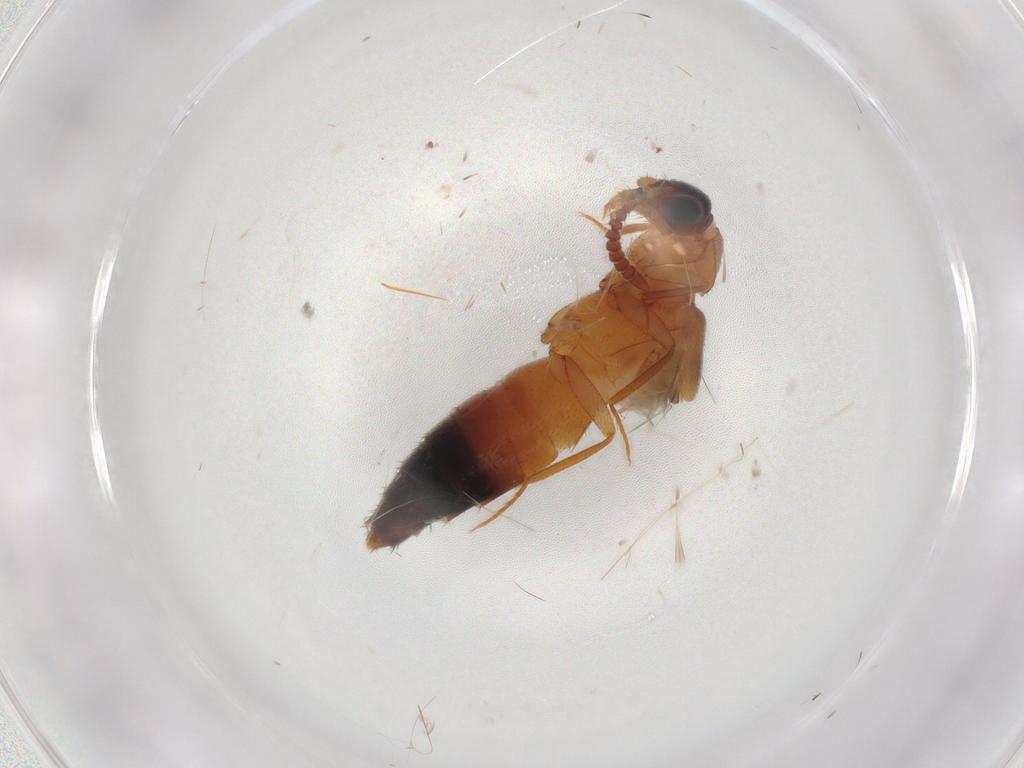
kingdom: Animalia
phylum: Arthropoda
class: Insecta
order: Coleoptera
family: Staphylinidae
